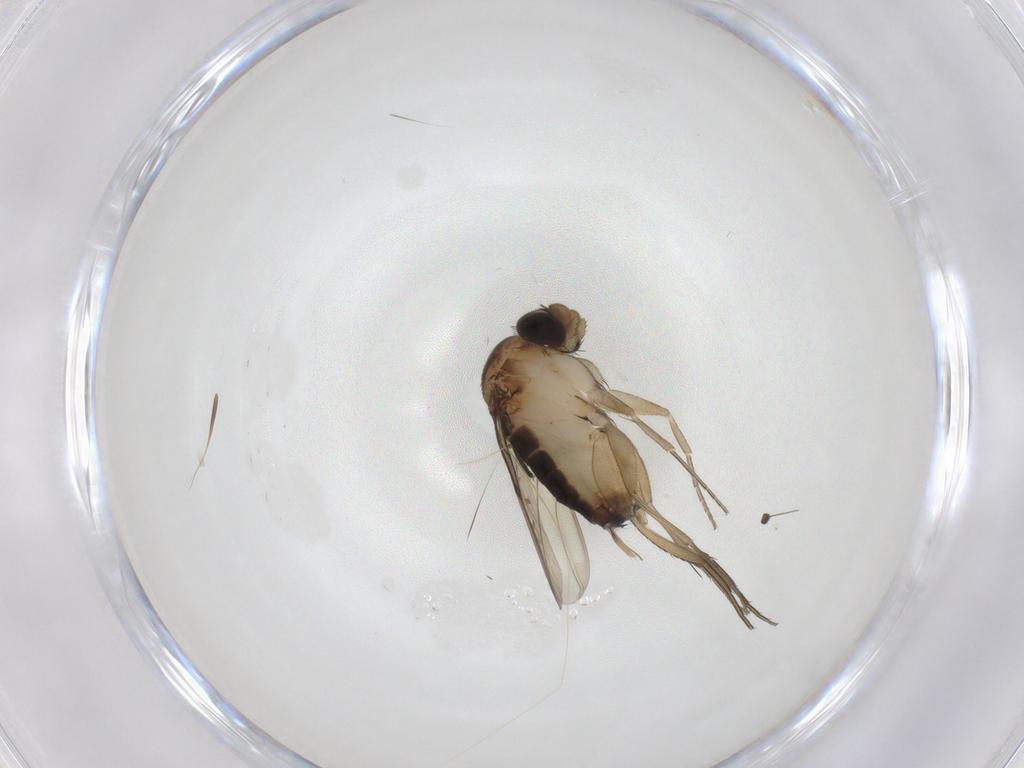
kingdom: Animalia
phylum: Arthropoda
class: Insecta
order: Diptera
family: Phoridae
